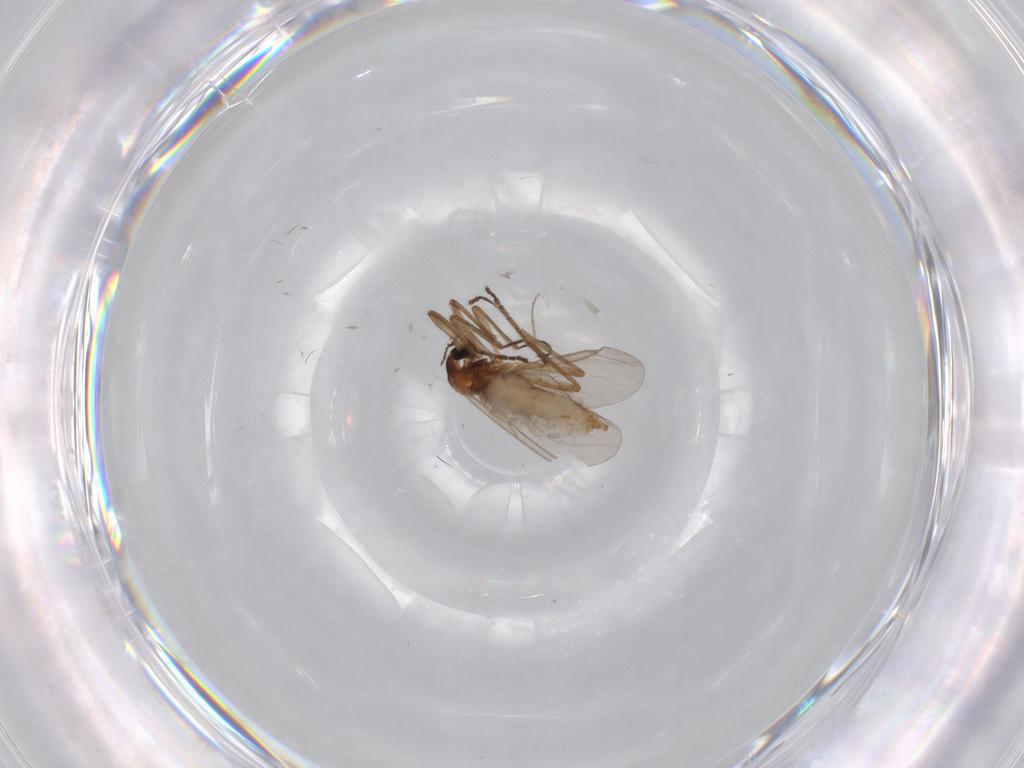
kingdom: Animalia
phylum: Arthropoda
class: Insecta
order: Diptera
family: Cecidomyiidae
